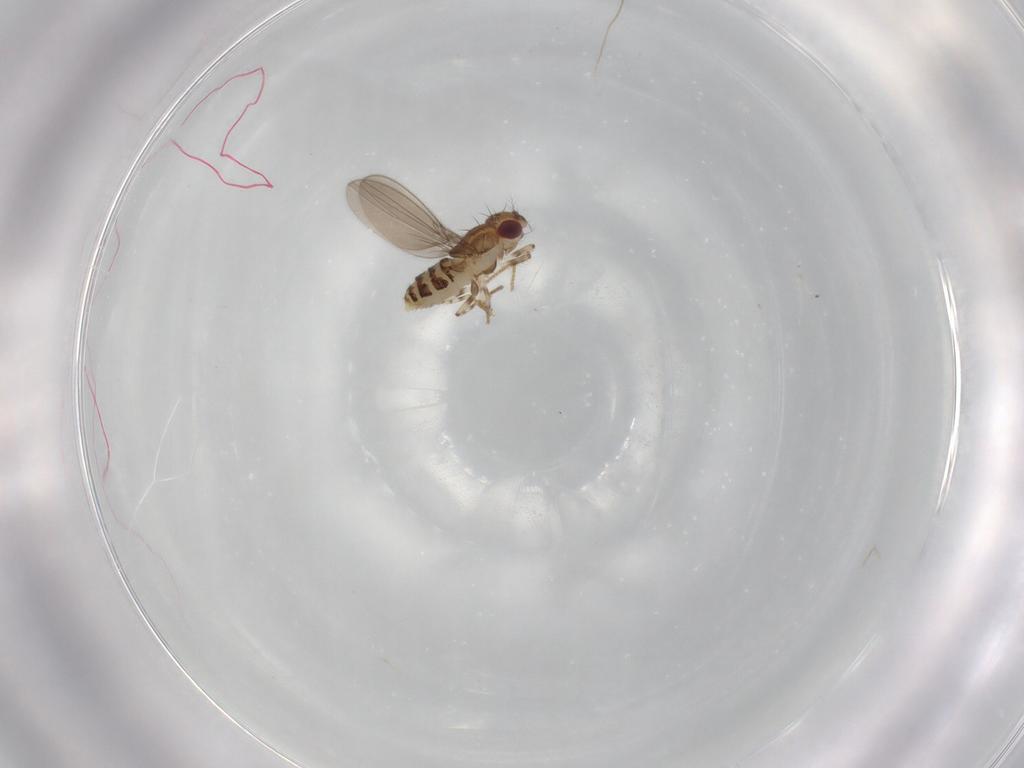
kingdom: Animalia
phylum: Arthropoda
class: Insecta
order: Diptera
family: Asteiidae
